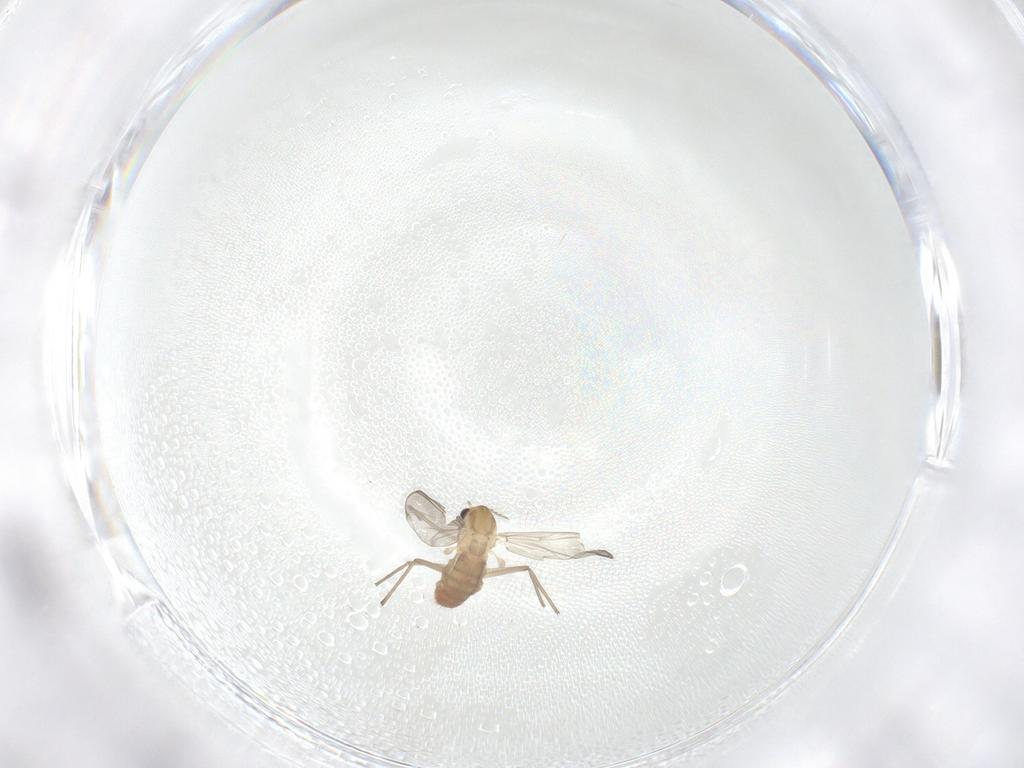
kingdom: Animalia
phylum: Arthropoda
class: Insecta
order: Diptera
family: Chironomidae
